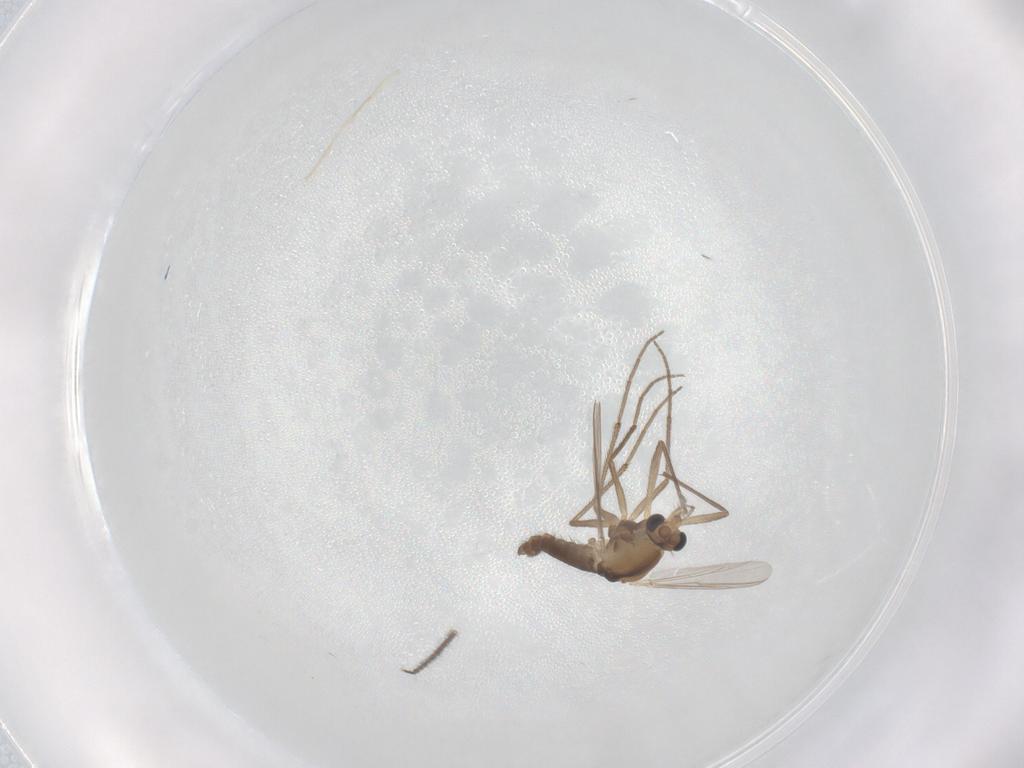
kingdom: Animalia
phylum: Arthropoda
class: Insecta
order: Diptera
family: Chironomidae
